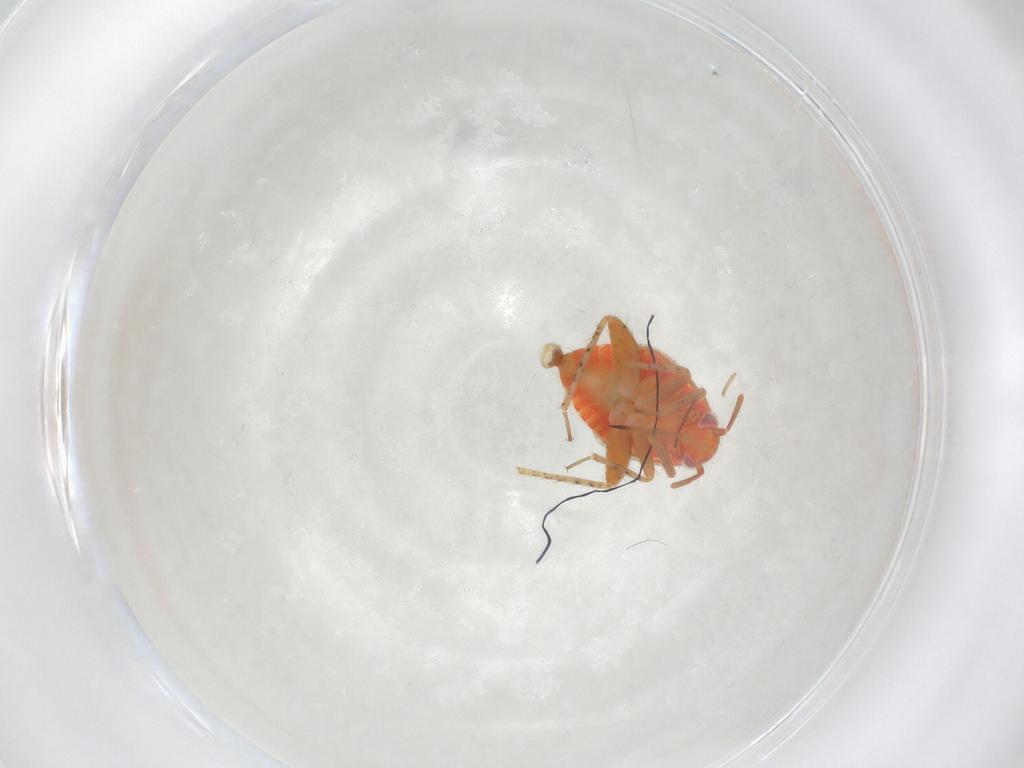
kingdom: Animalia
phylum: Arthropoda
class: Insecta
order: Hemiptera
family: Miridae
